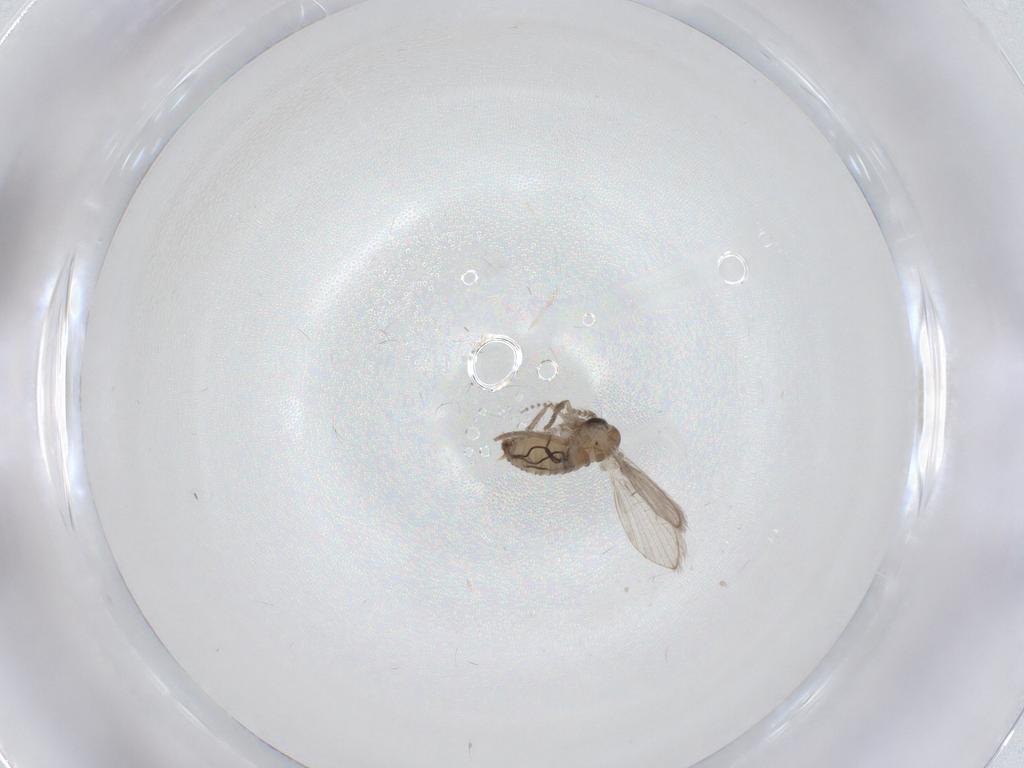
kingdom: Animalia
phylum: Arthropoda
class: Insecta
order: Diptera
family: Psychodidae
